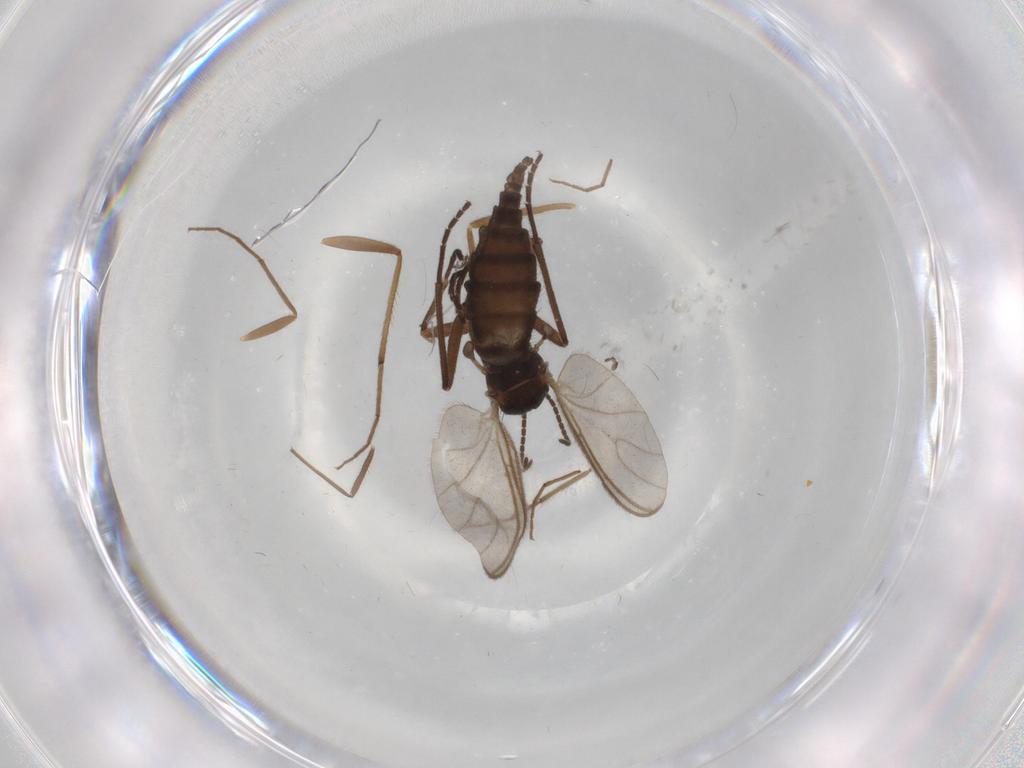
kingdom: Animalia
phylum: Arthropoda
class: Insecta
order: Diptera
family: Sciaridae
